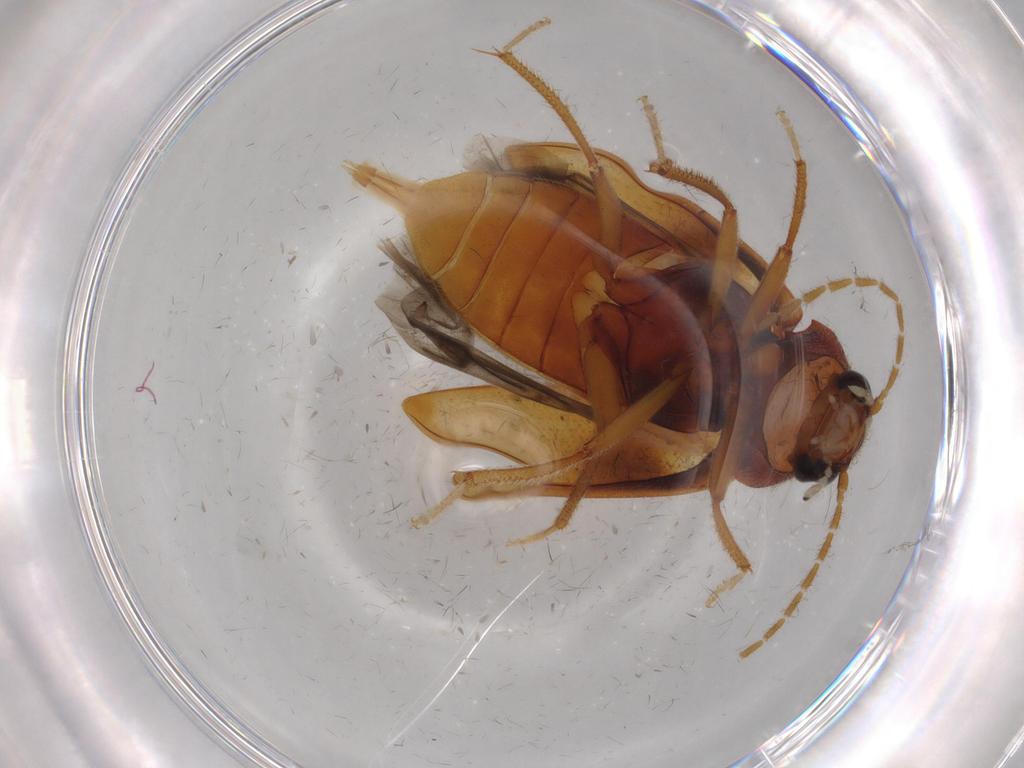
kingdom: Animalia
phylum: Arthropoda
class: Insecta
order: Coleoptera
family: Ptilodactylidae
